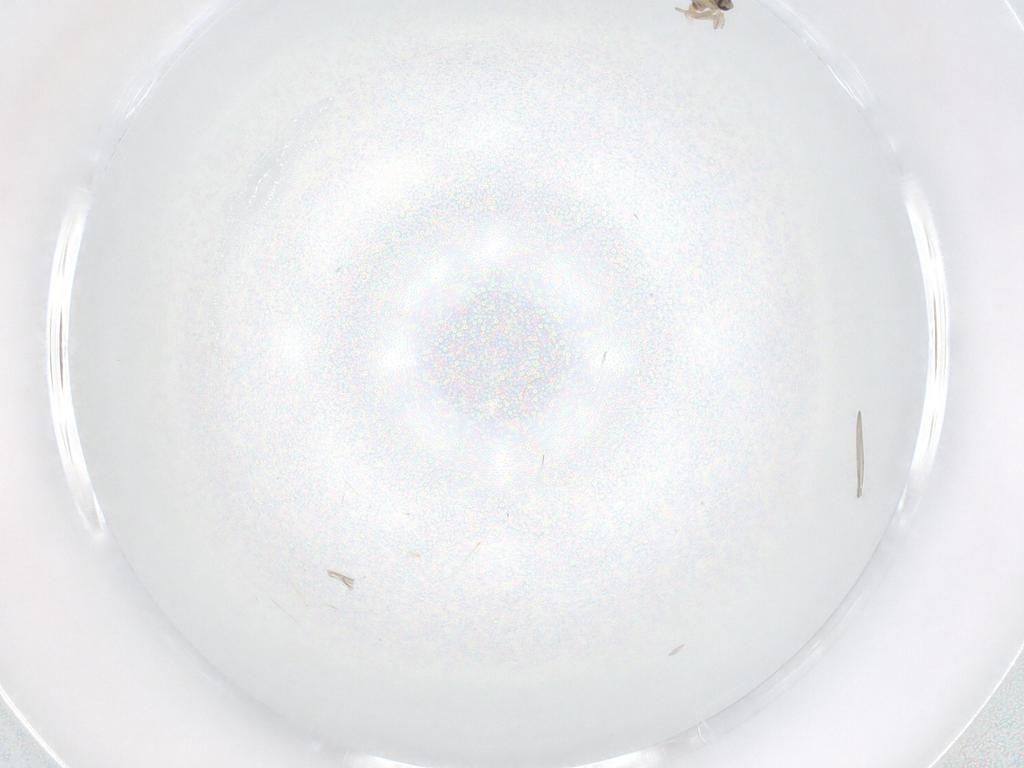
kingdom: Animalia
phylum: Arthropoda
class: Insecta
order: Diptera
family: Cecidomyiidae
